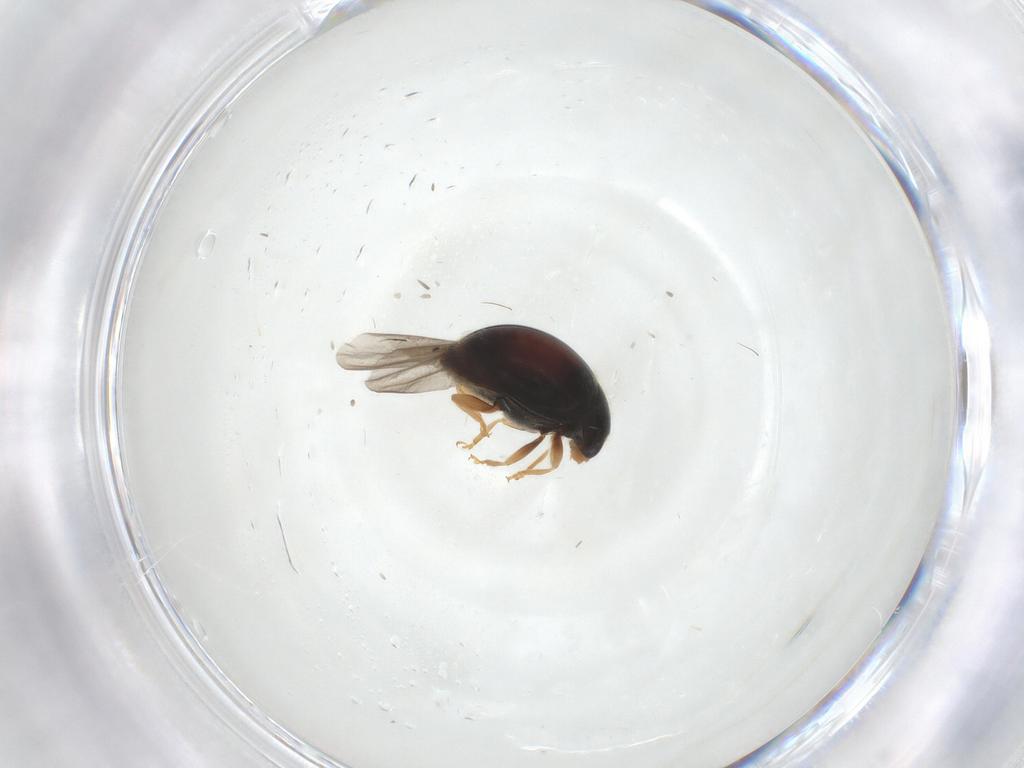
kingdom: Animalia
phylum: Arthropoda
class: Insecta
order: Coleoptera
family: Coccinellidae
